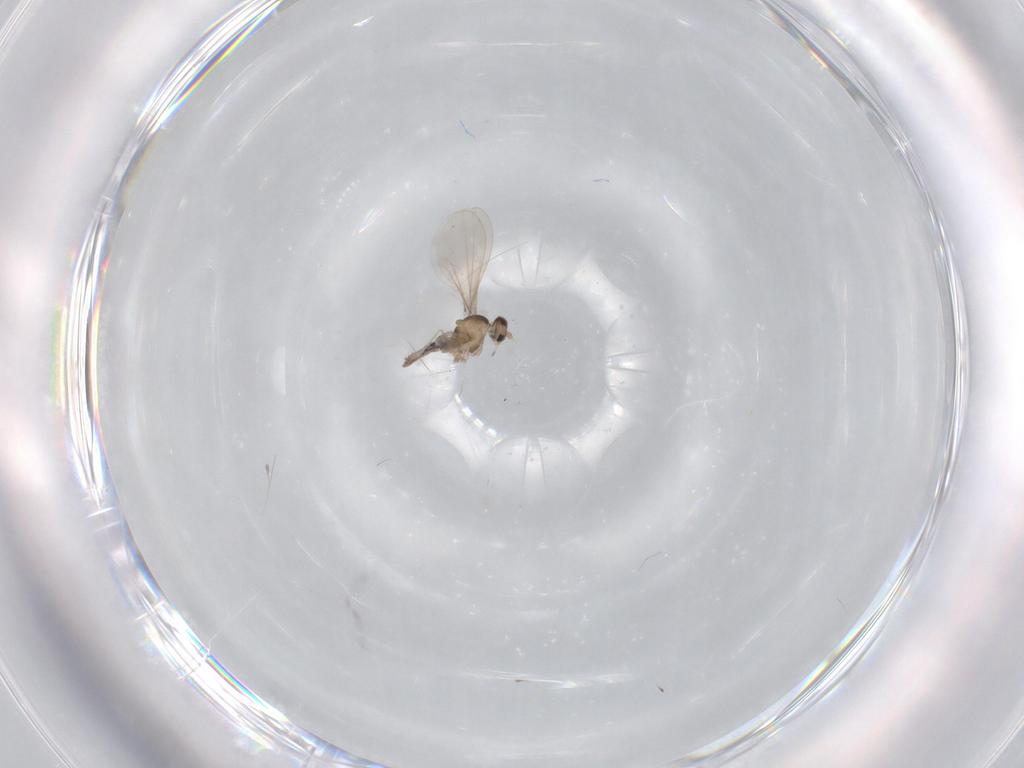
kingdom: Animalia
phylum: Arthropoda
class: Insecta
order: Diptera
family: Cecidomyiidae
